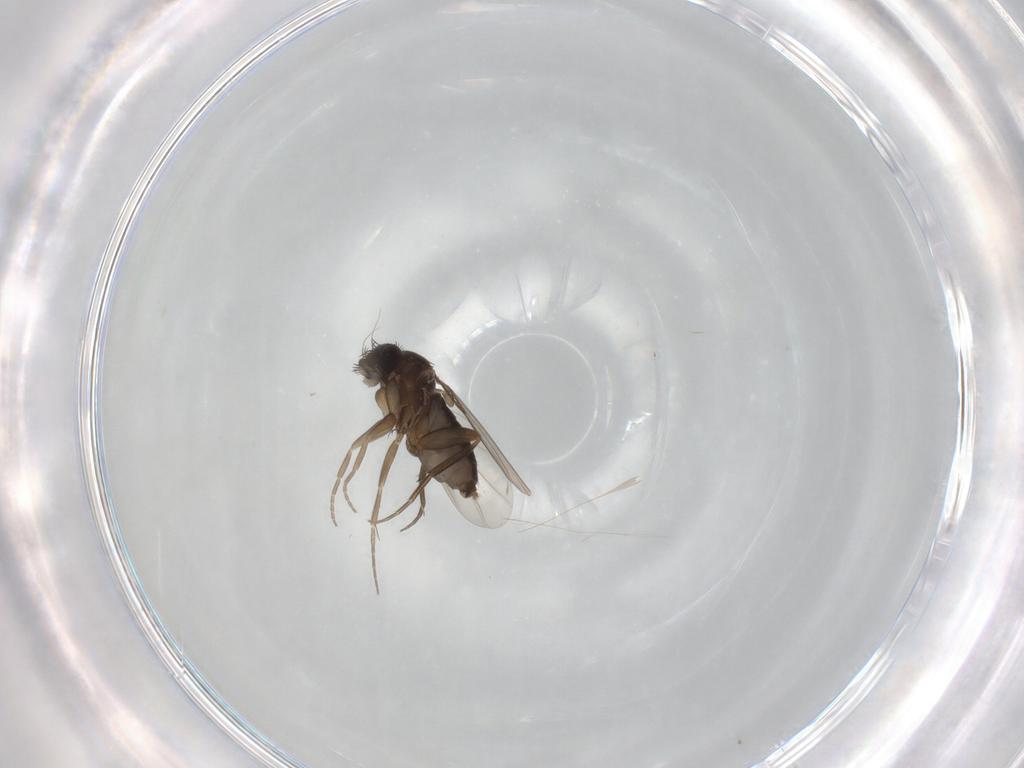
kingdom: Animalia
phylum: Arthropoda
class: Insecta
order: Diptera
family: Phoridae
